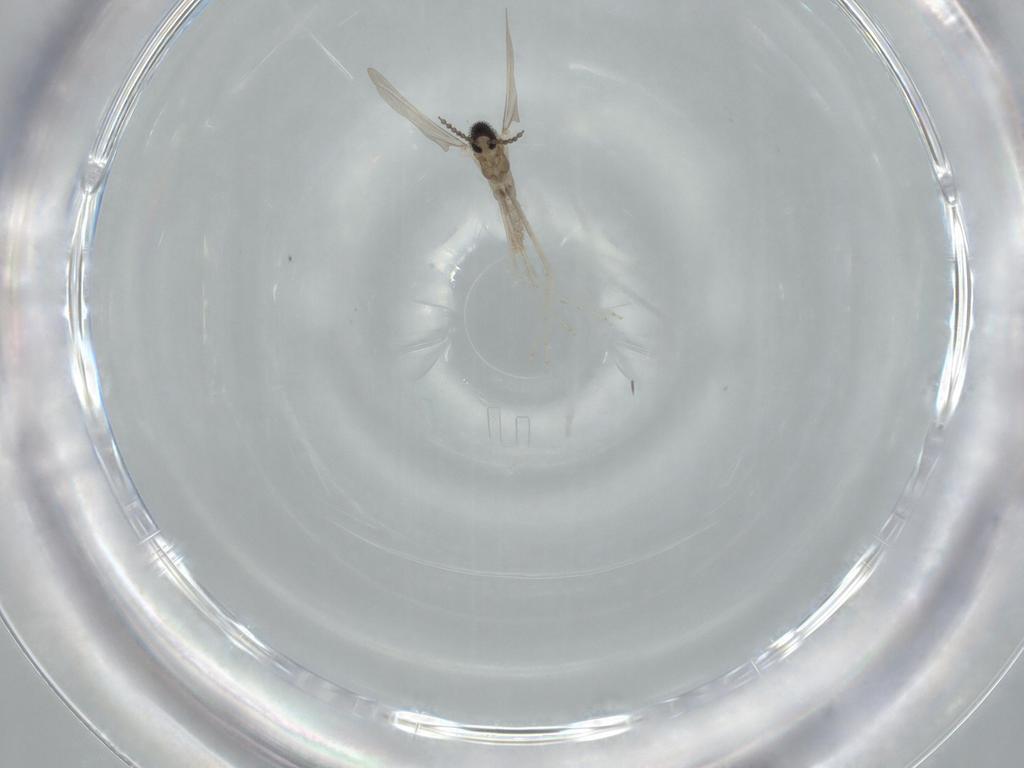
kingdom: Animalia
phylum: Arthropoda
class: Insecta
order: Diptera
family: Cecidomyiidae
